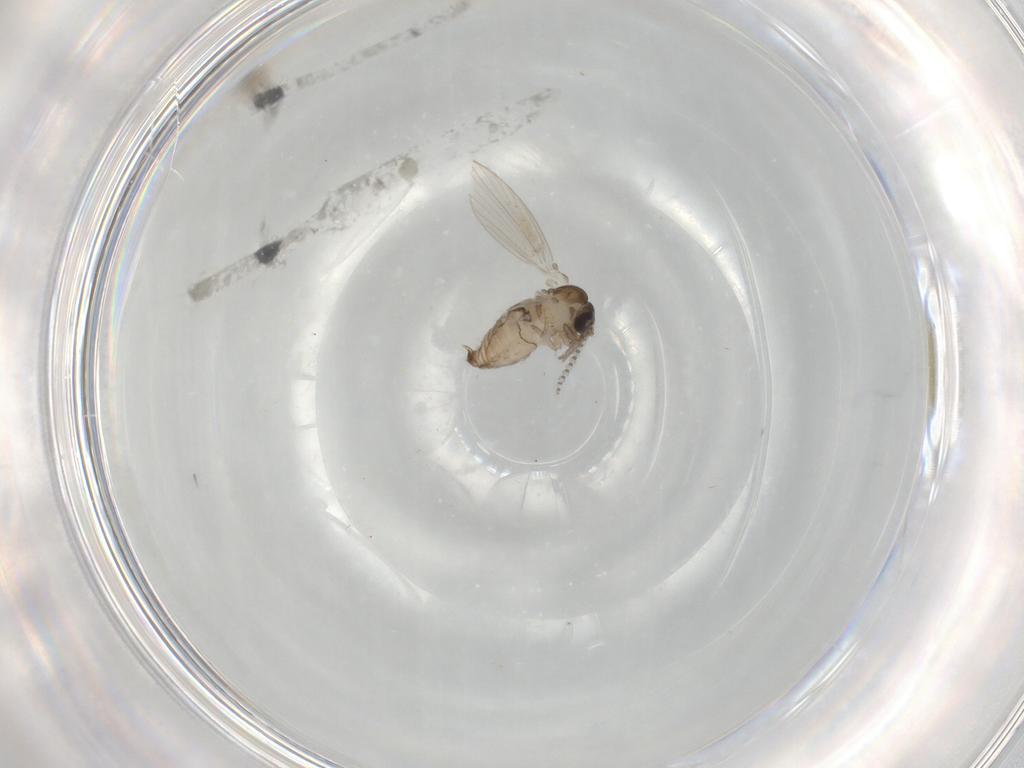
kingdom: Animalia
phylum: Arthropoda
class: Insecta
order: Diptera
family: Psychodidae
